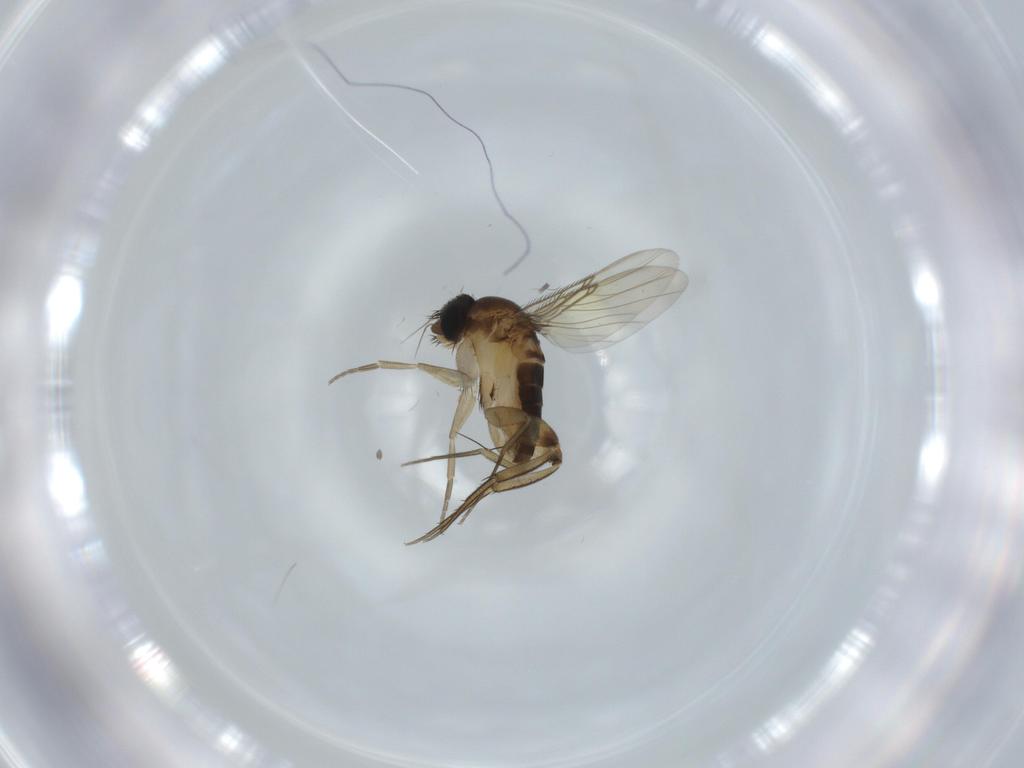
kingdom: Animalia
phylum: Arthropoda
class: Insecta
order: Diptera
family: Phoridae
